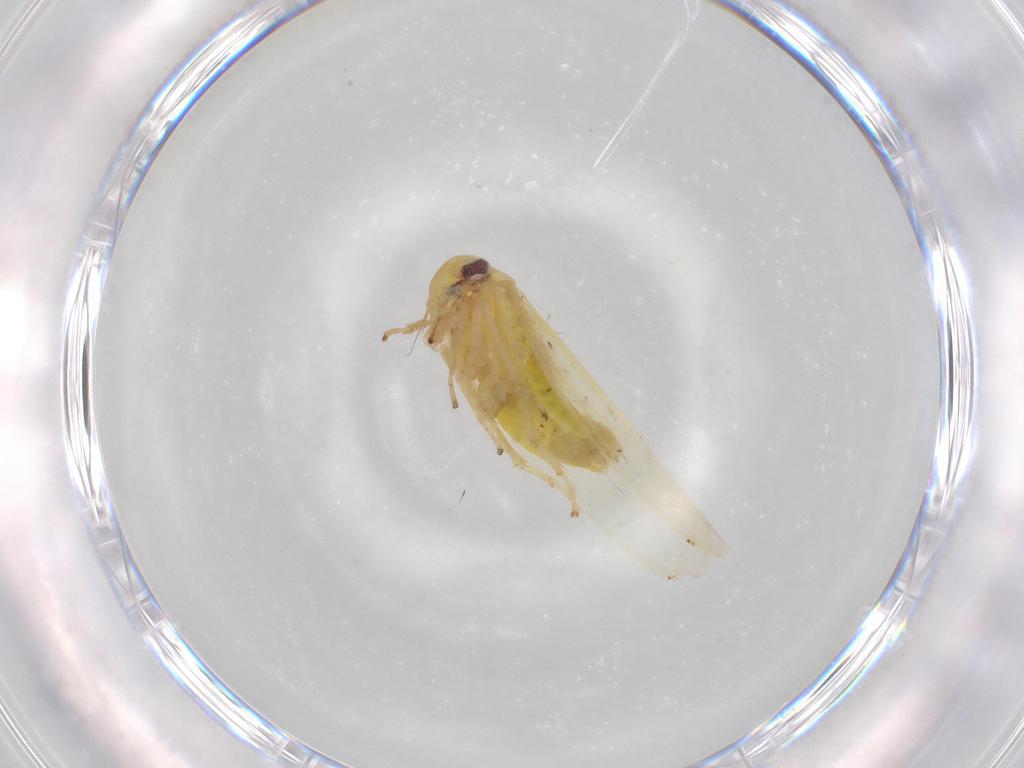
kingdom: Animalia
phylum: Arthropoda
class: Insecta
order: Hemiptera
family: Cicadellidae
